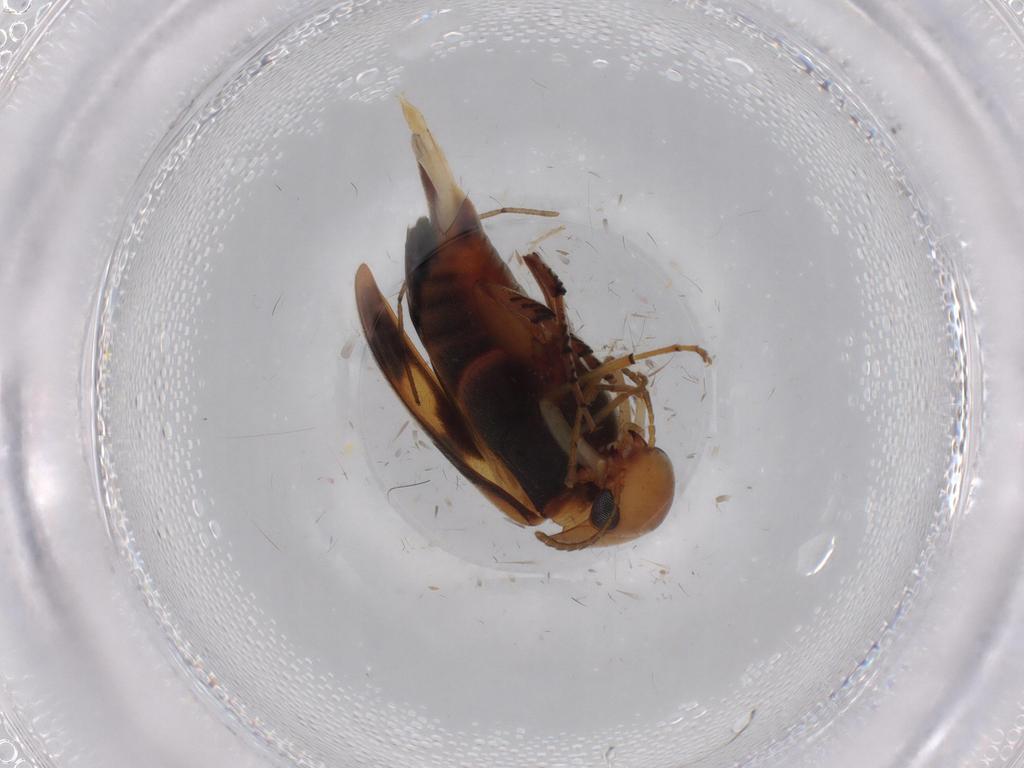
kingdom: Animalia
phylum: Arthropoda
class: Insecta
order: Coleoptera
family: Mordellidae
